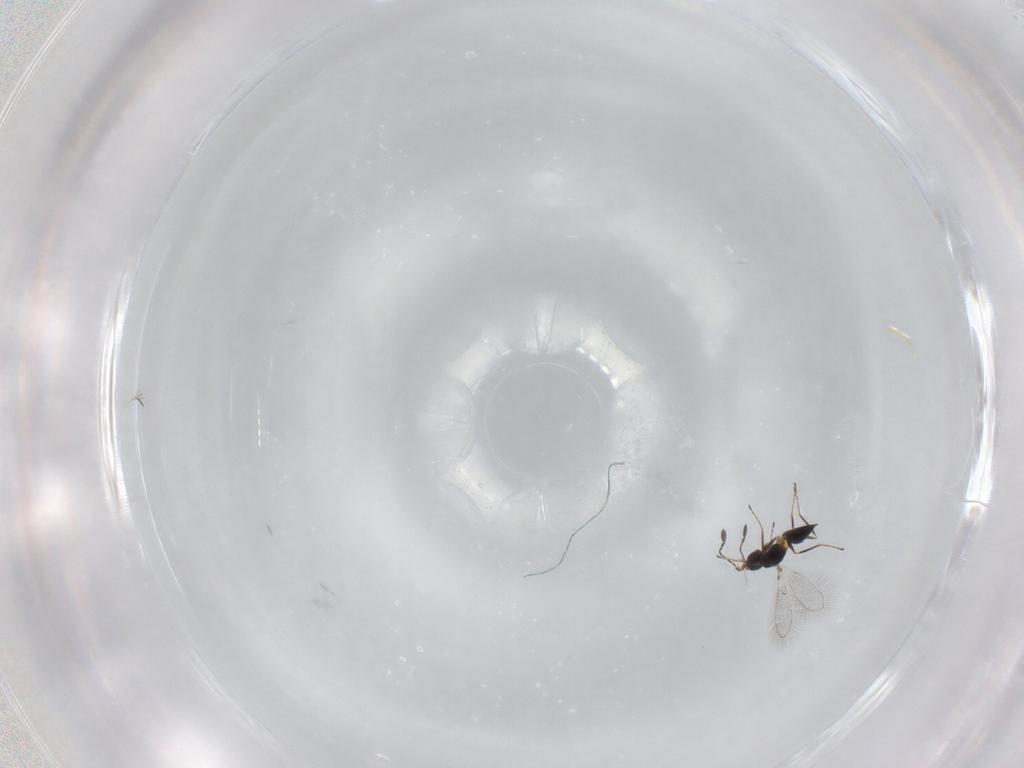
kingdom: Animalia
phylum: Arthropoda
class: Insecta
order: Hymenoptera
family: Mymaridae
